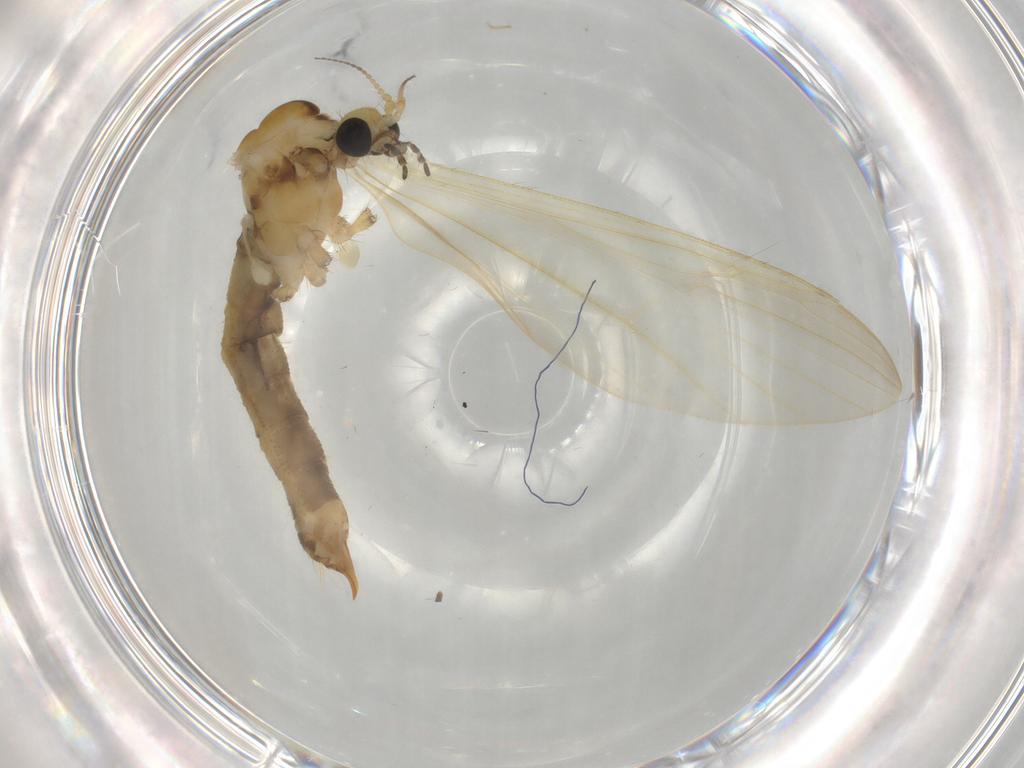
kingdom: Animalia
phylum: Arthropoda
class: Insecta
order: Diptera
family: Limoniidae
